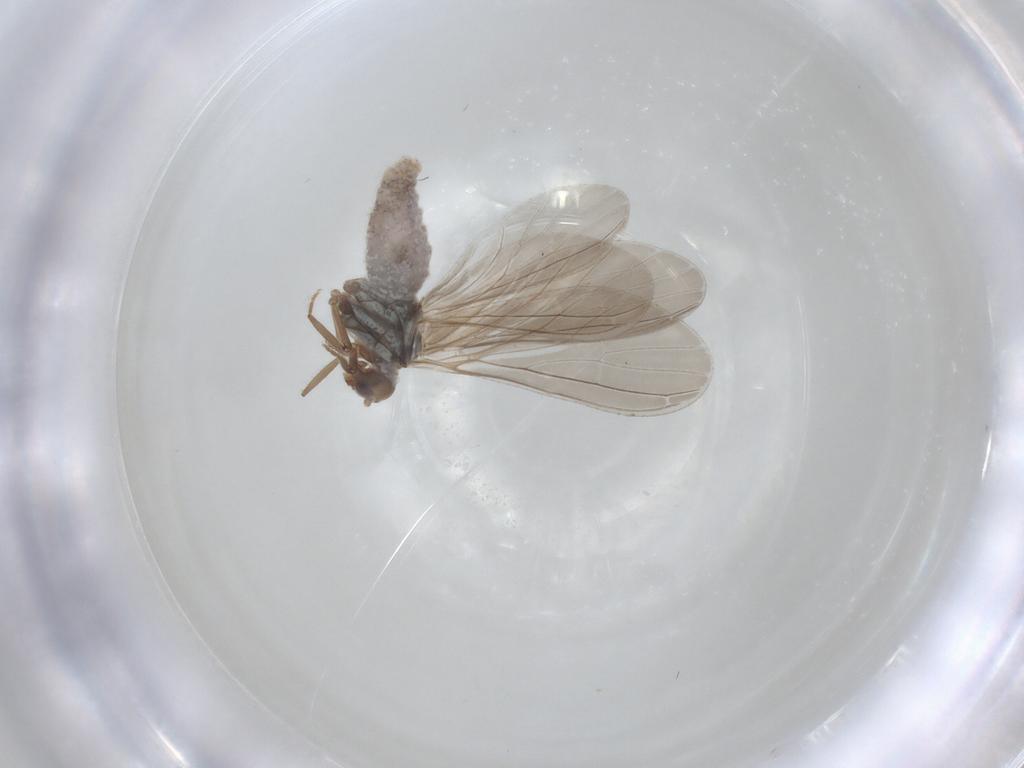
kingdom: Animalia
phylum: Arthropoda
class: Insecta
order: Neuroptera
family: Coniopterygidae
